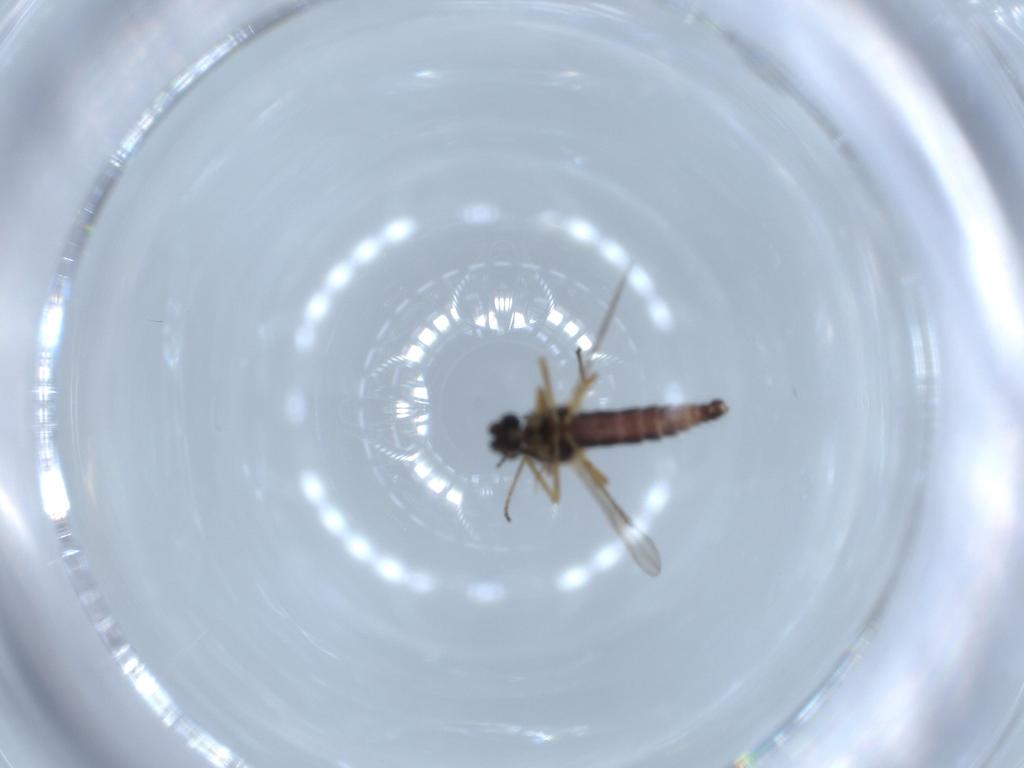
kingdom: Animalia
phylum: Arthropoda
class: Insecta
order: Diptera
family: Ceratopogonidae
